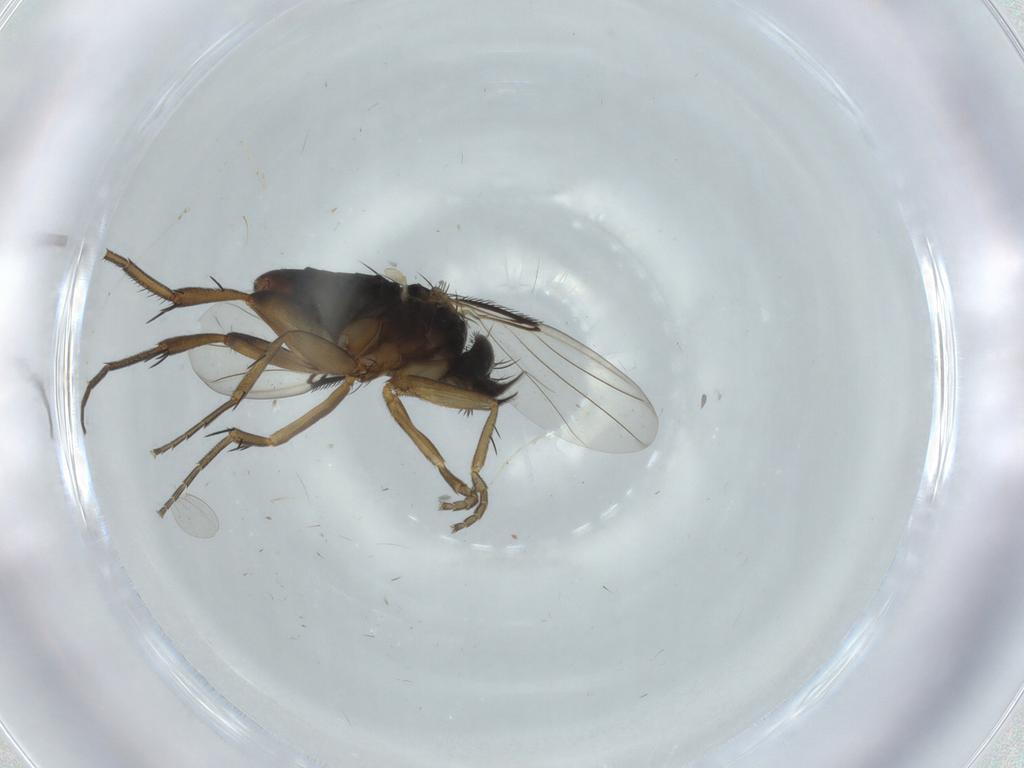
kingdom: Animalia
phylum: Arthropoda
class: Insecta
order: Diptera
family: Phoridae
